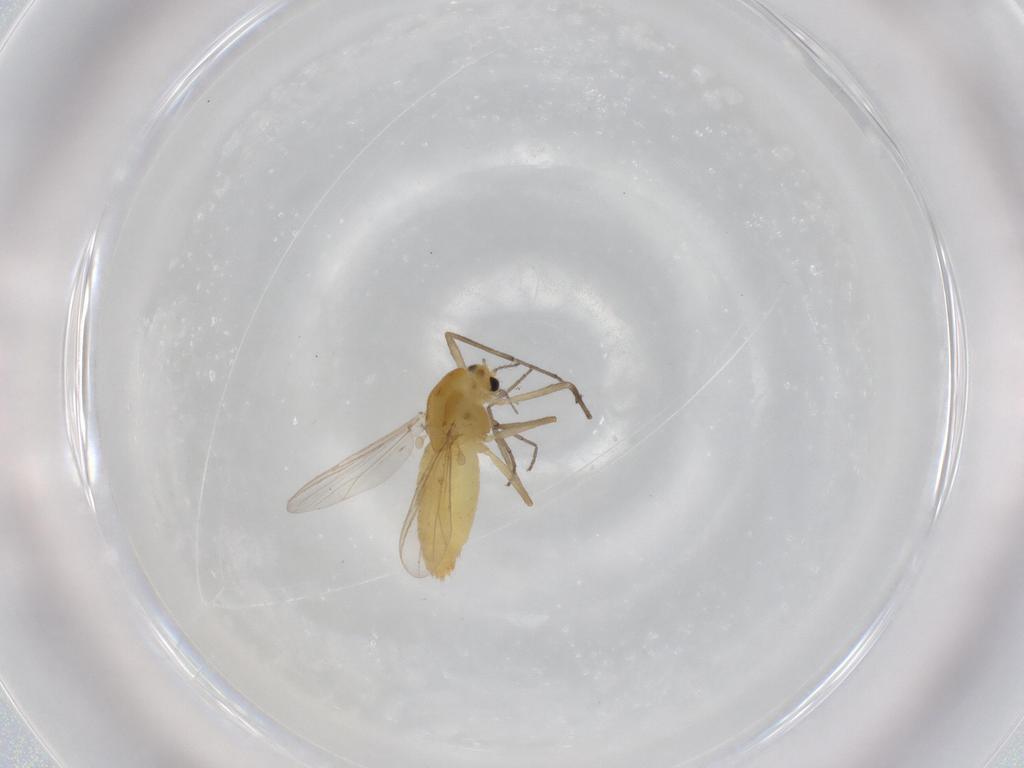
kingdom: Animalia
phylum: Arthropoda
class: Insecta
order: Diptera
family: Chironomidae
